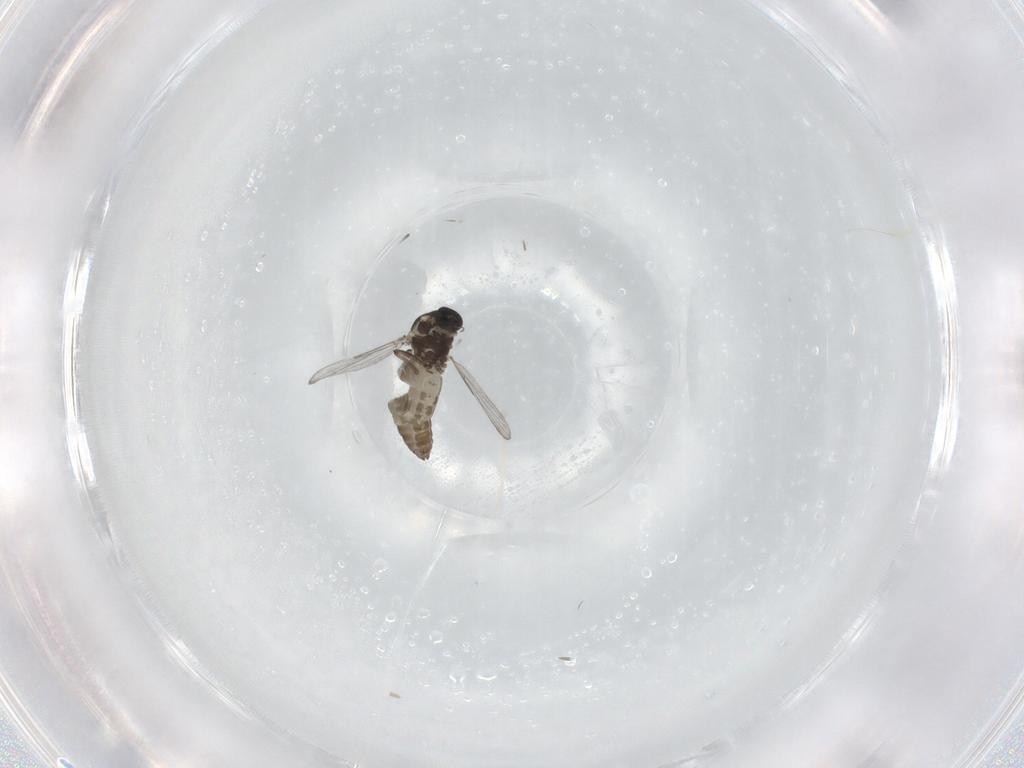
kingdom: Animalia
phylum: Arthropoda
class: Insecta
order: Diptera
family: Ceratopogonidae
